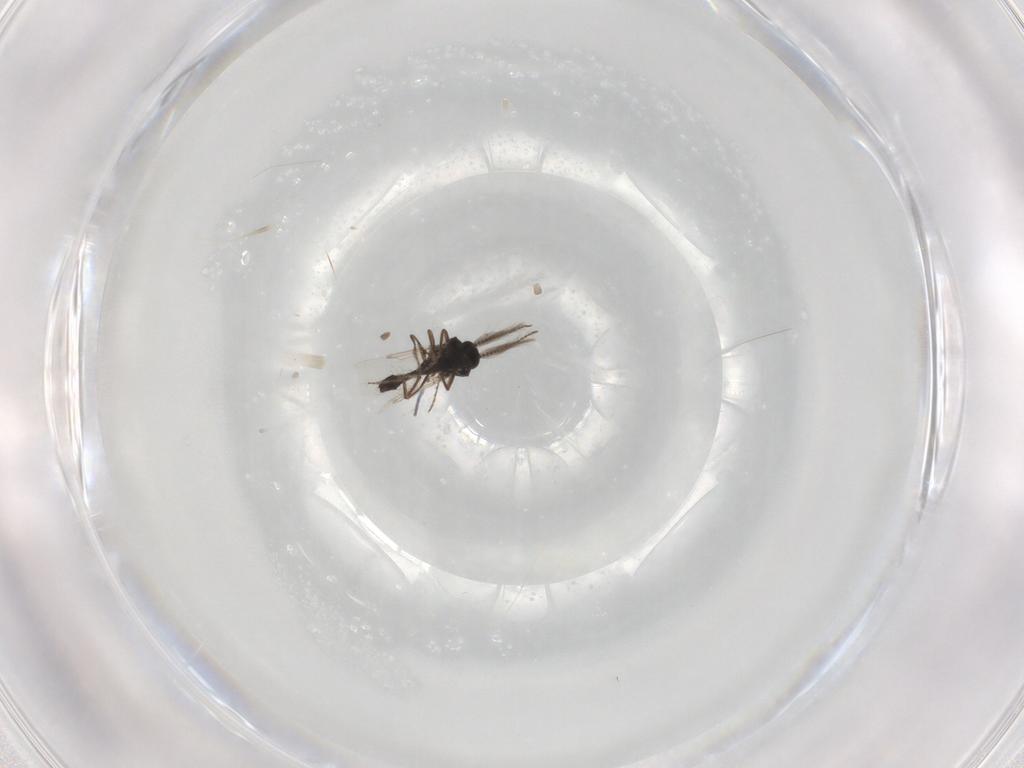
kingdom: Animalia
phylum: Arthropoda
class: Insecta
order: Diptera
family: Ceratopogonidae
